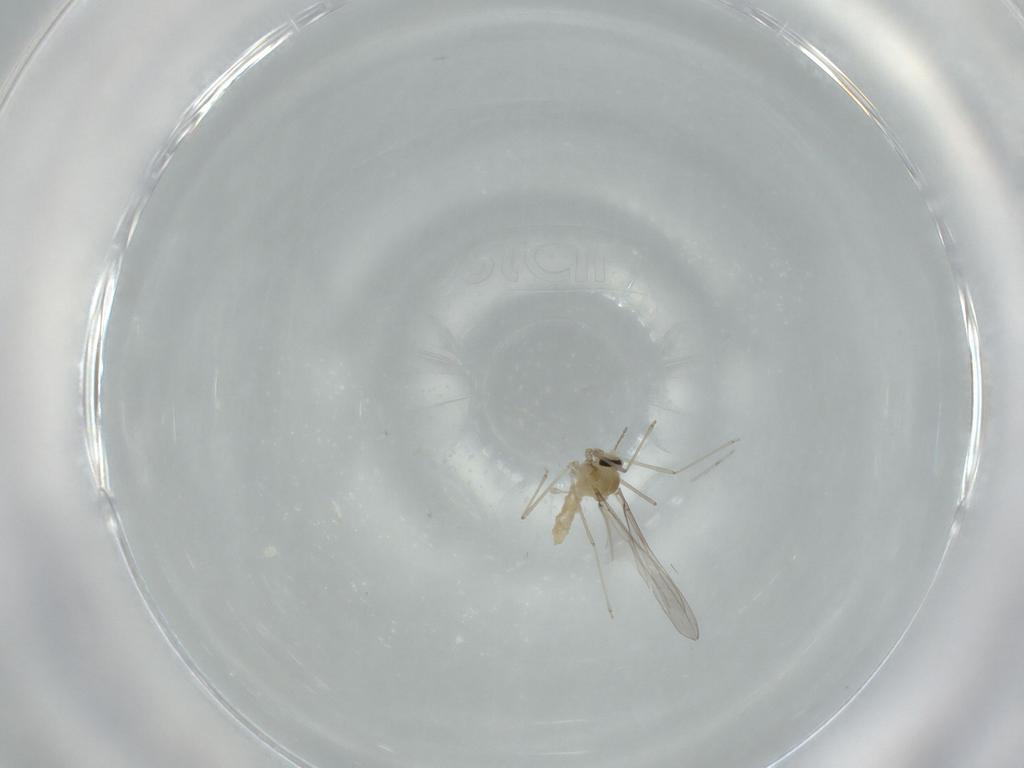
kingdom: Animalia
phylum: Arthropoda
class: Insecta
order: Diptera
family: Cecidomyiidae
